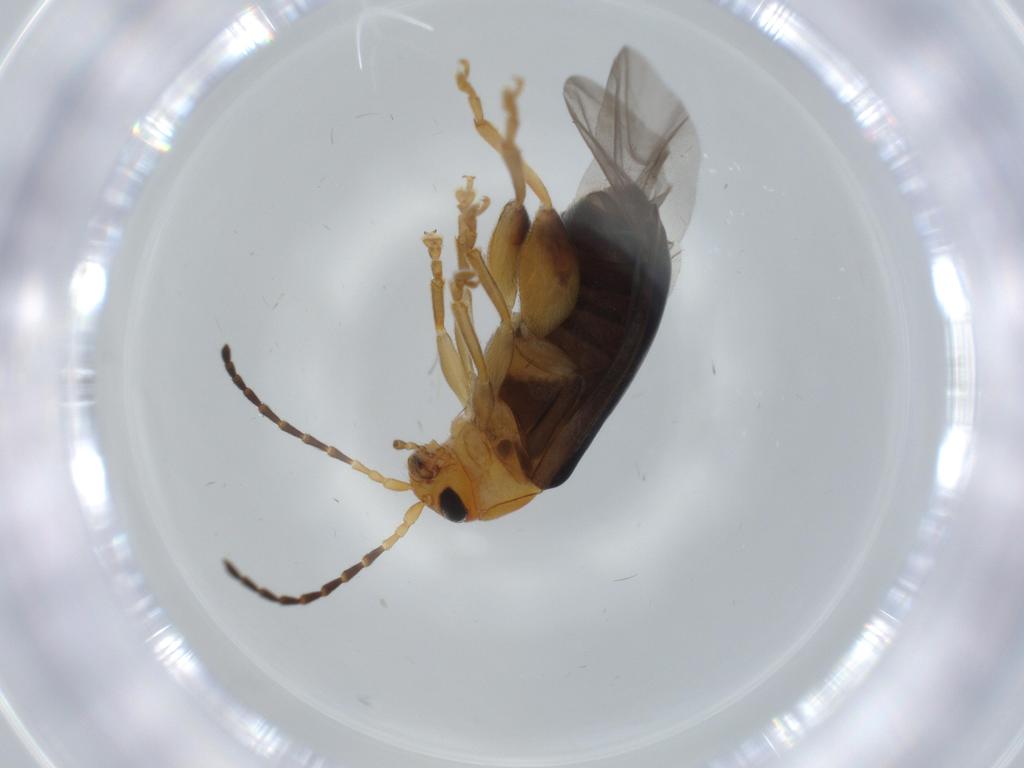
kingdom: Animalia
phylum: Arthropoda
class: Insecta
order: Coleoptera
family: Chrysomelidae
